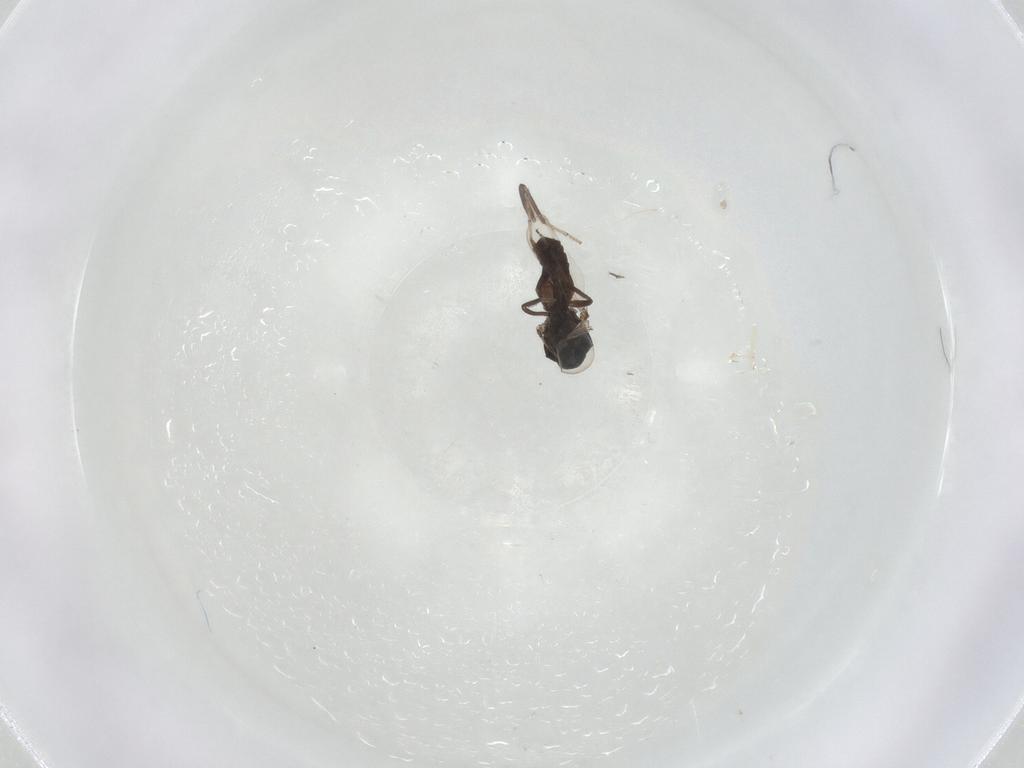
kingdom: Animalia
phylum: Arthropoda
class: Insecta
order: Diptera
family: Ceratopogonidae
